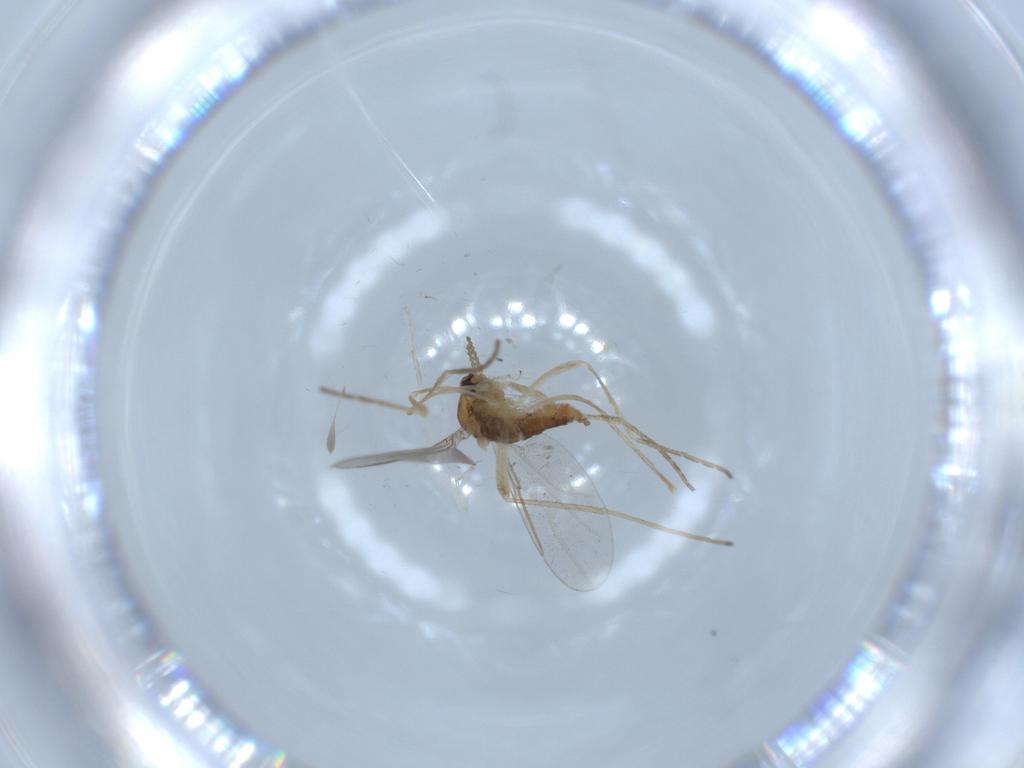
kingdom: Animalia
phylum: Arthropoda
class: Insecta
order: Diptera
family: Cecidomyiidae
